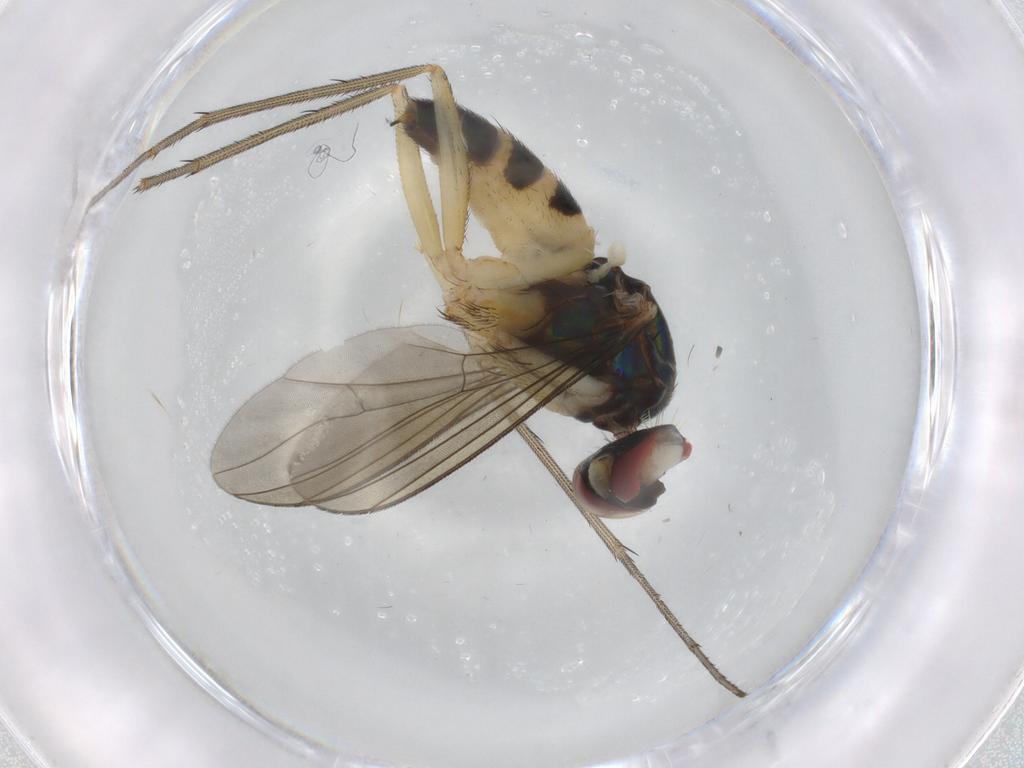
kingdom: Animalia
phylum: Arthropoda
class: Insecta
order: Diptera
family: Dolichopodidae
